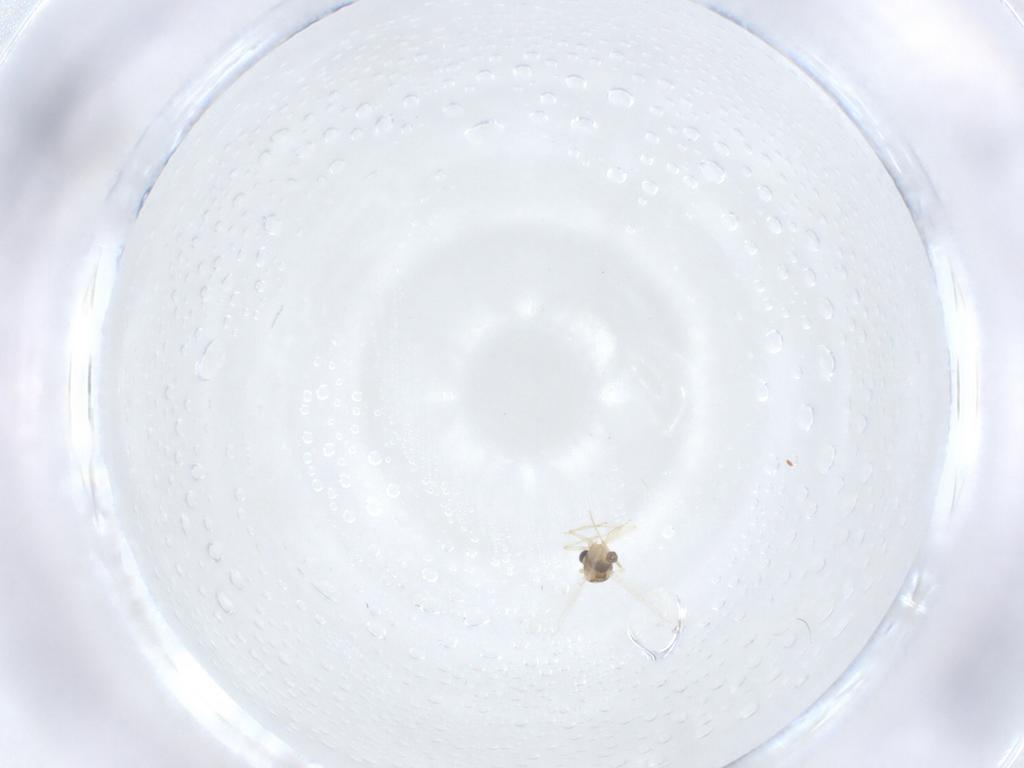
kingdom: Animalia
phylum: Arthropoda
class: Insecta
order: Diptera
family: Chironomidae
